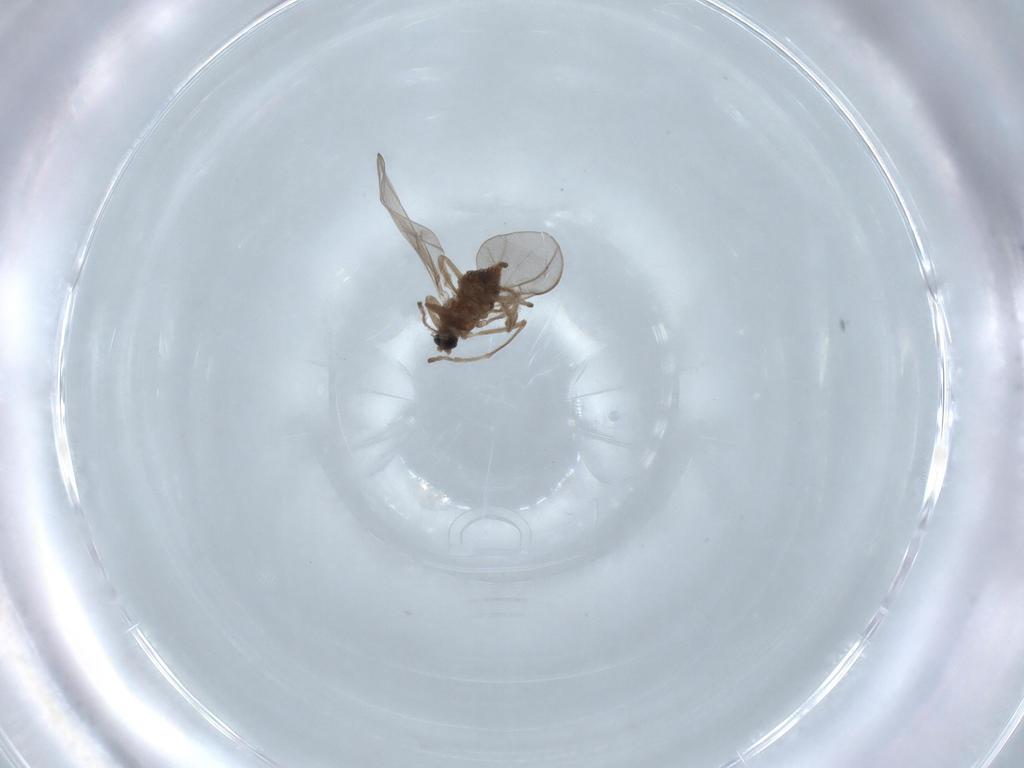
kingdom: Animalia
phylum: Arthropoda
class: Insecta
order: Diptera
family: Cecidomyiidae
